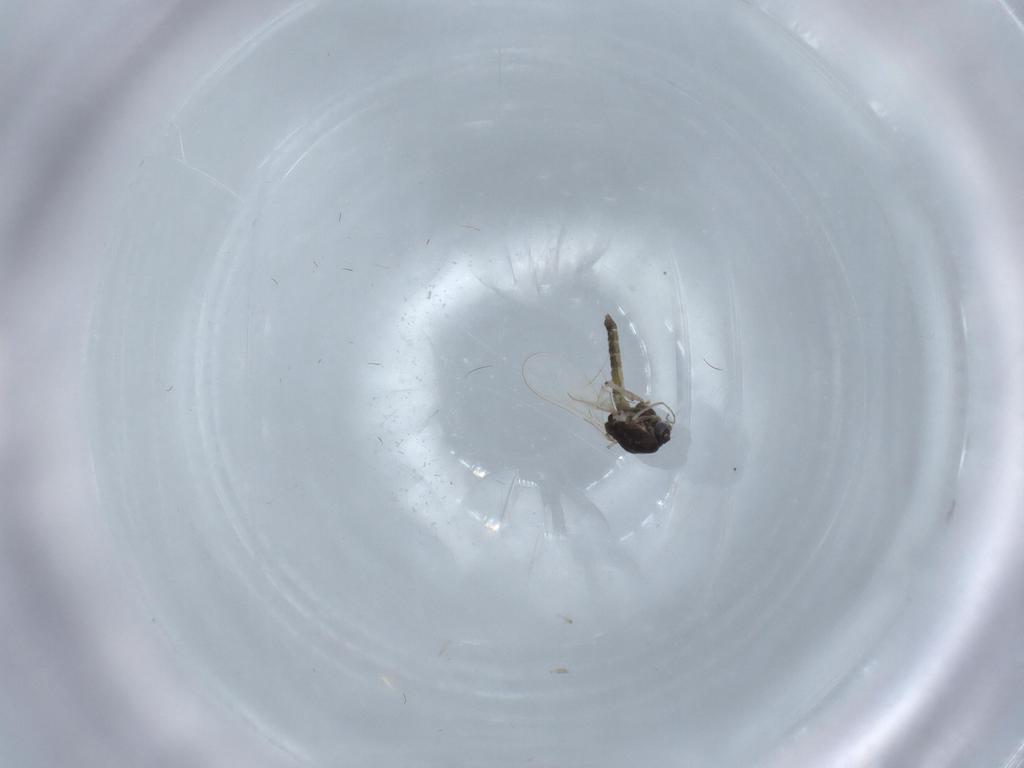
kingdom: Animalia
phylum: Arthropoda
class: Insecta
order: Diptera
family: Chironomidae
